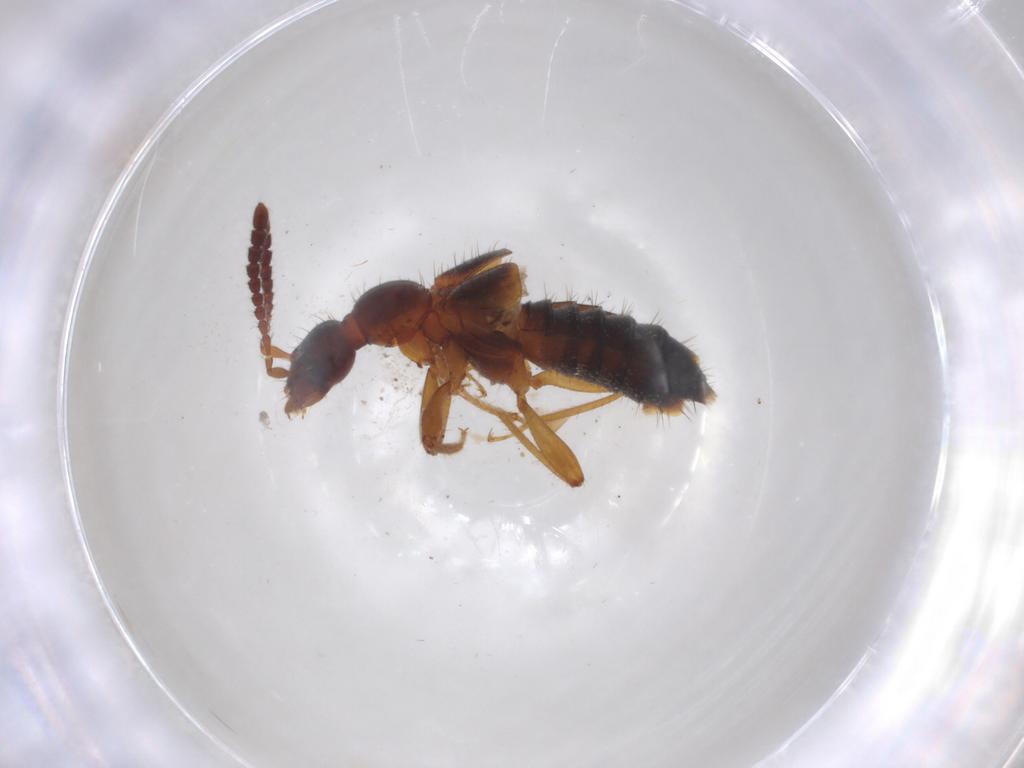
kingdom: Animalia
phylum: Arthropoda
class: Insecta
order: Coleoptera
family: Staphylinidae
